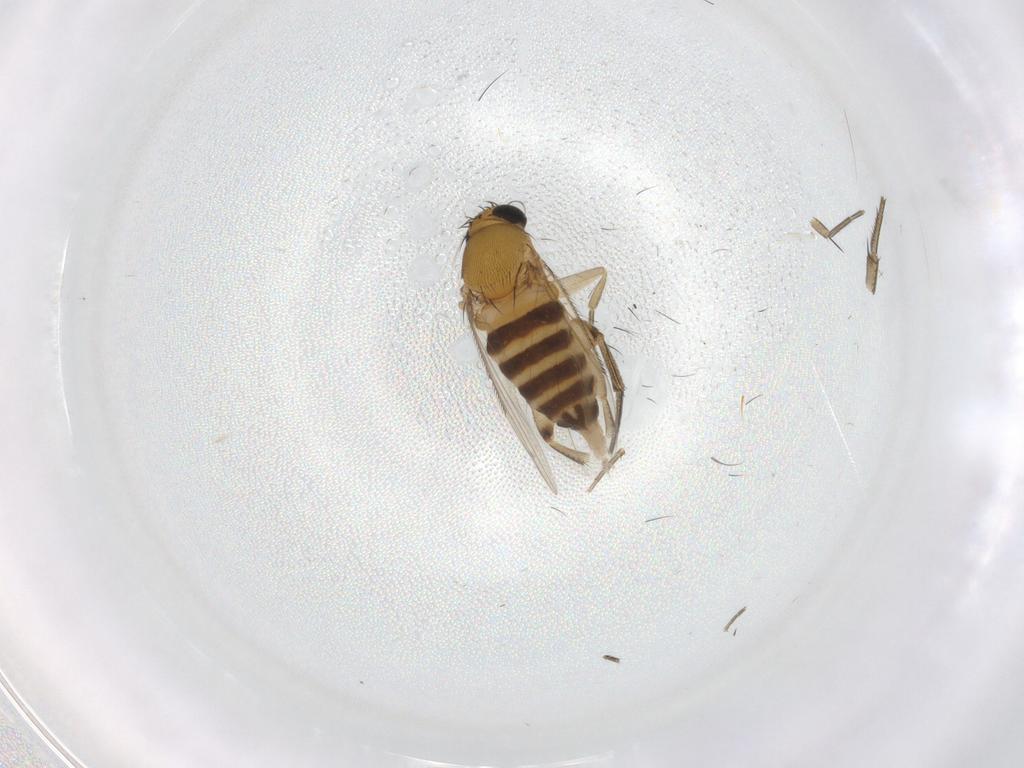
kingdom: Animalia
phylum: Arthropoda
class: Insecta
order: Diptera
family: Phoridae
